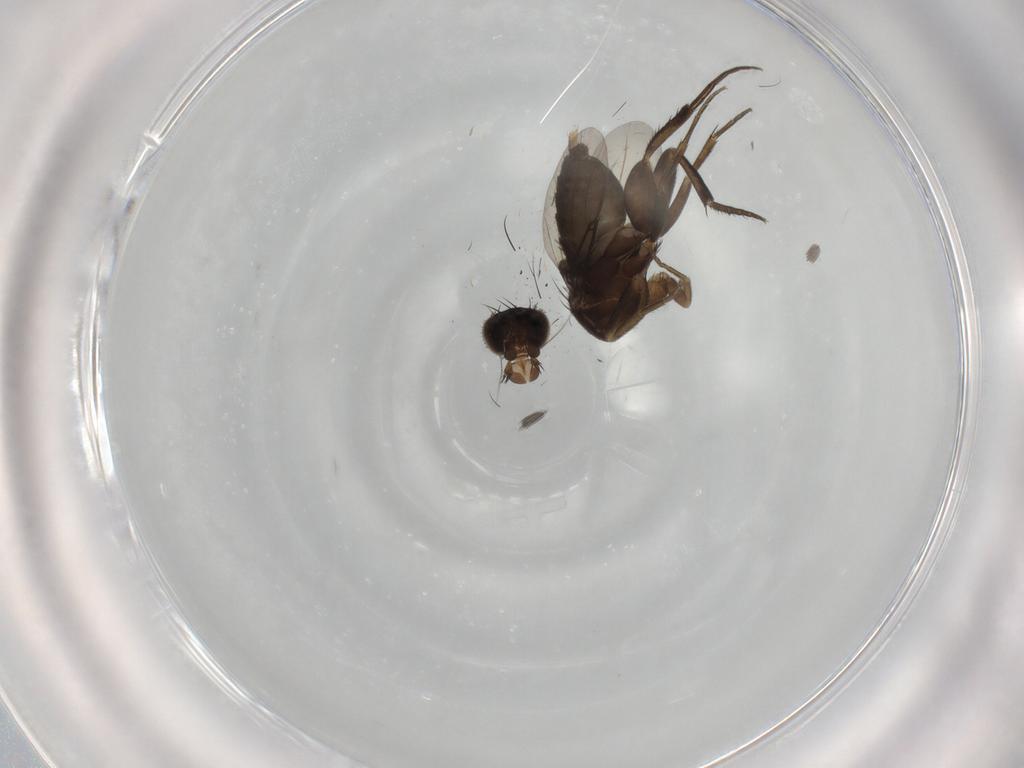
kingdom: Animalia
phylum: Arthropoda
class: Insecta
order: Diptera
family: Phoridae
